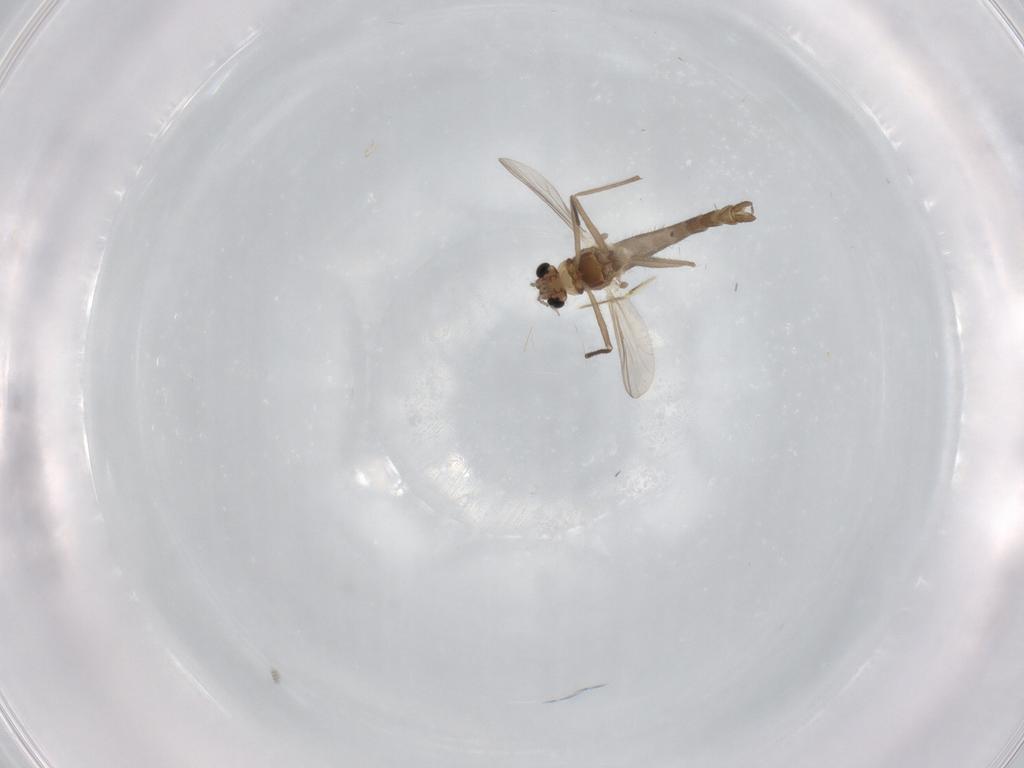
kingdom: Animalia
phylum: Arthropoda
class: Insecta
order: Diptera
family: Chironomidae
